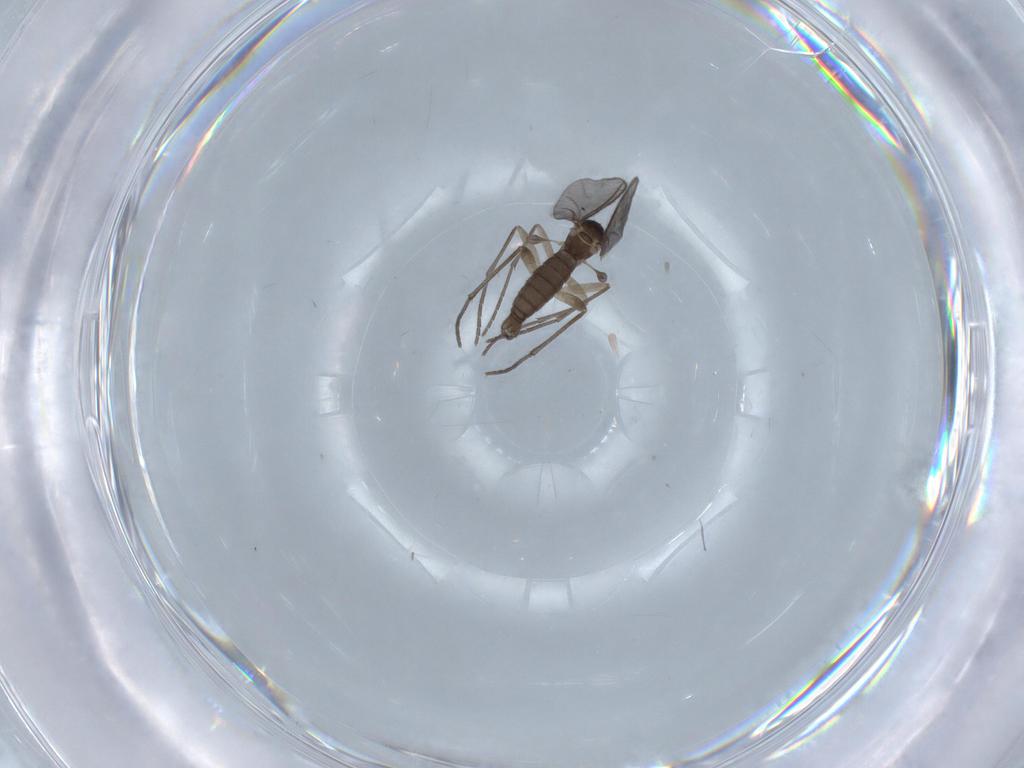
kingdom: Animalia
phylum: Arthropoda
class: Insecta
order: Diptera
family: Sciaridae
